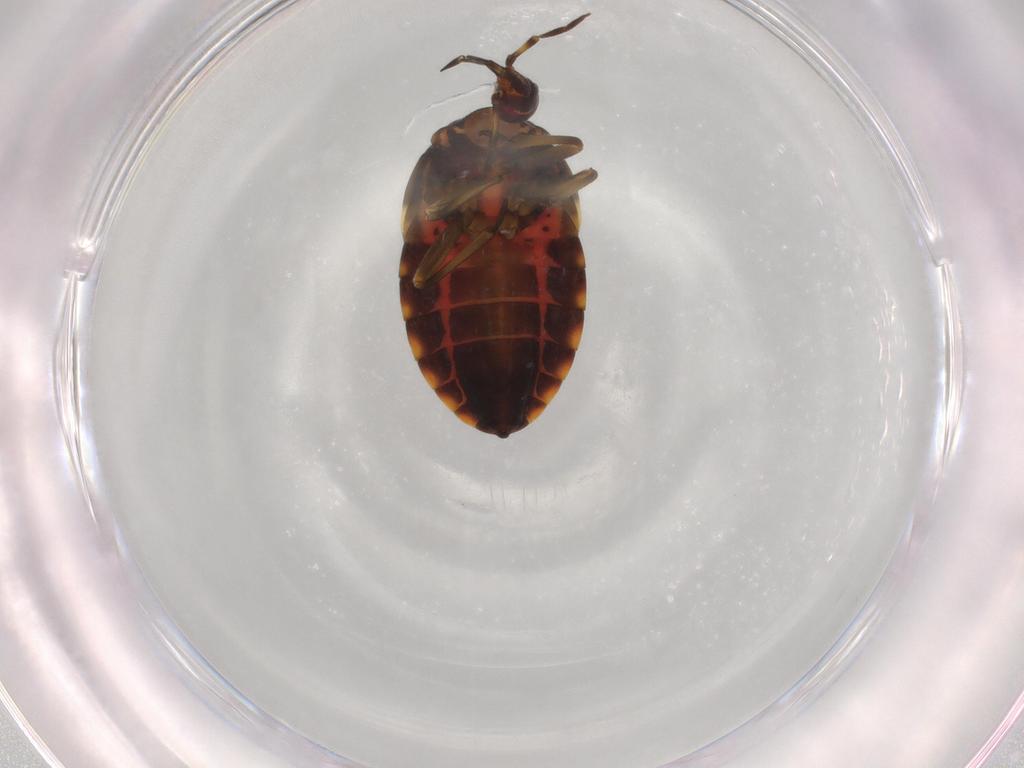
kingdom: Animalia
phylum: Arthropoda
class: Insecta
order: Hemiptera
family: Aphididae
